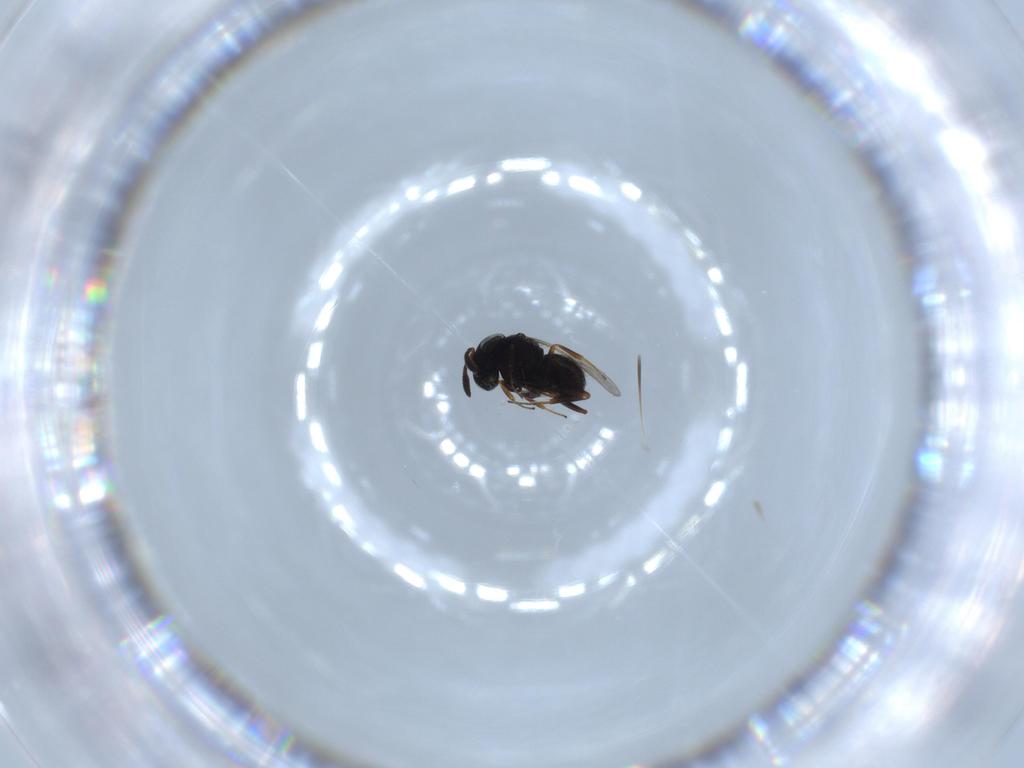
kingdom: Animalia
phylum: Arthropoda
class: Insecta
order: Hymenoptera
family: Scelionidae
